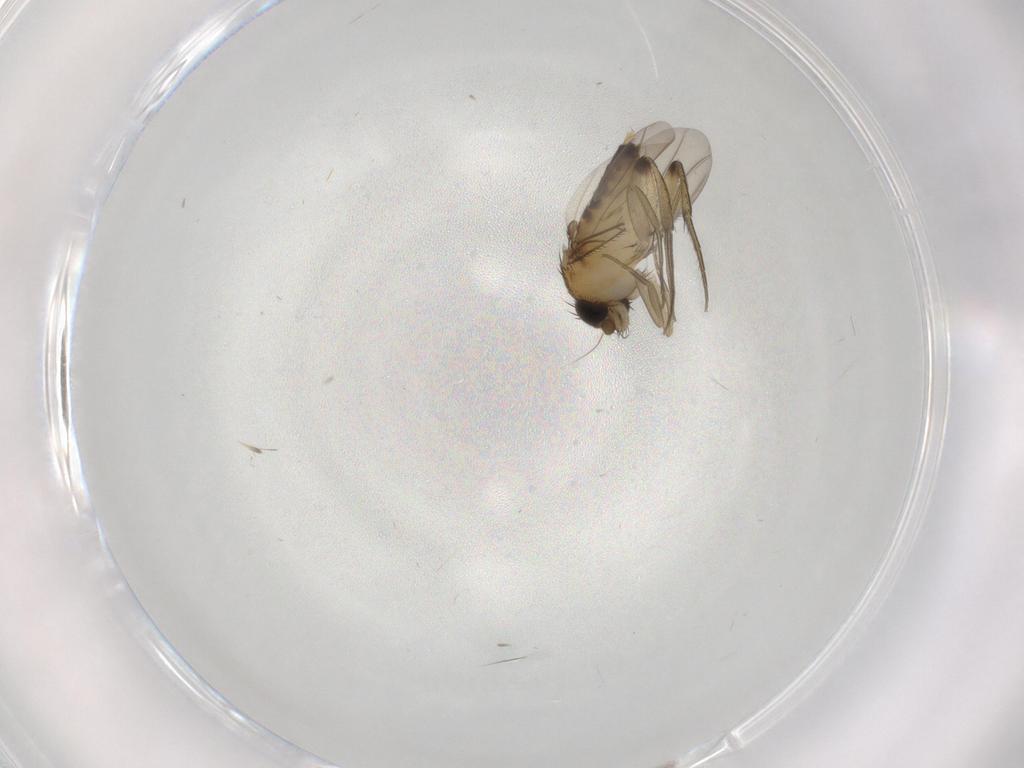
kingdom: Animalia
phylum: Arthropoda
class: Insecta
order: Diptera
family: Phoridae
